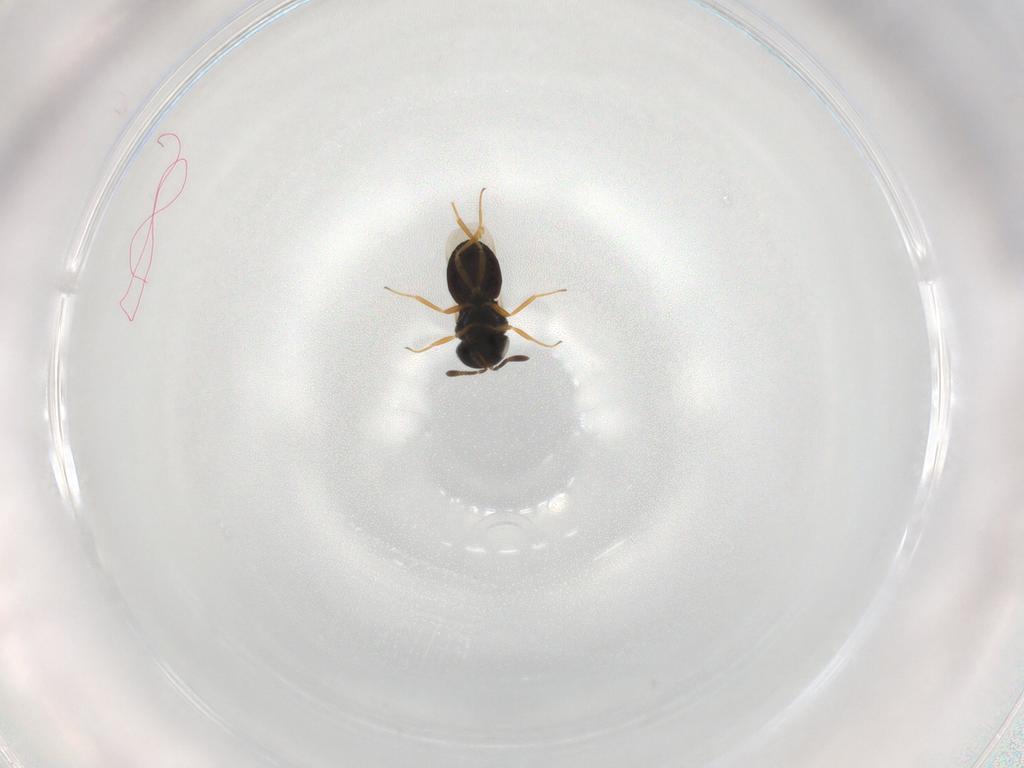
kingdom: Animalia
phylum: Arthropoda
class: Insecta
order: Hymenoptera
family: Scelionidae
